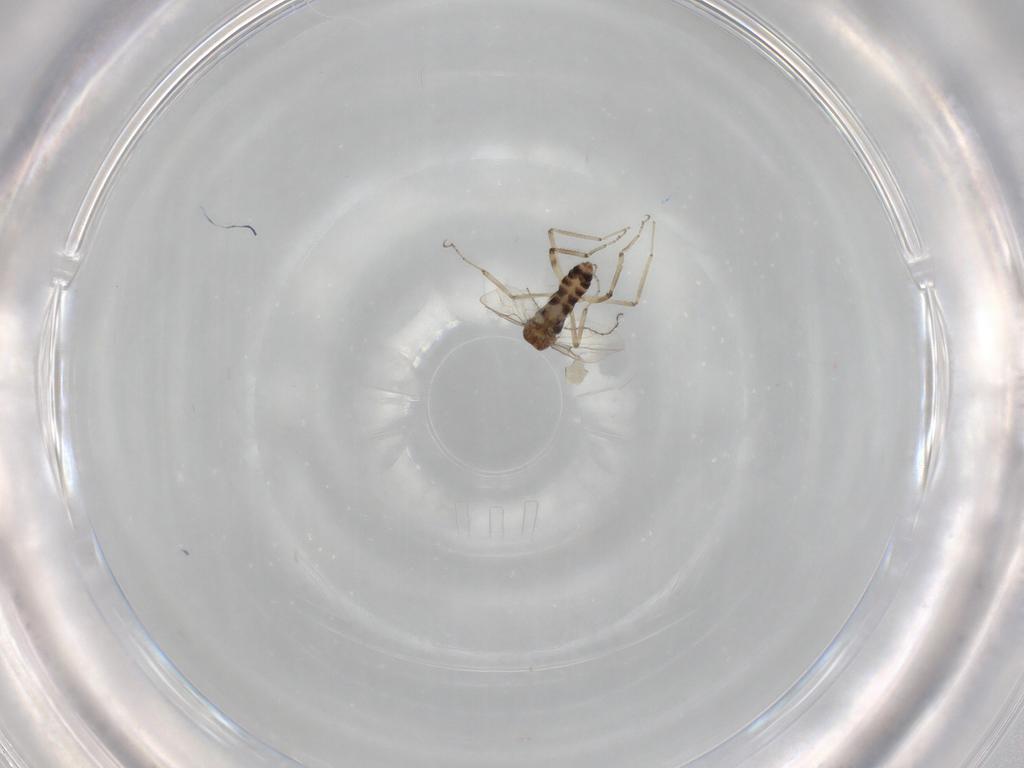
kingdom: Animalia
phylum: Arthropoda
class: Insecta
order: Diptera
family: Ceratopogonidae
